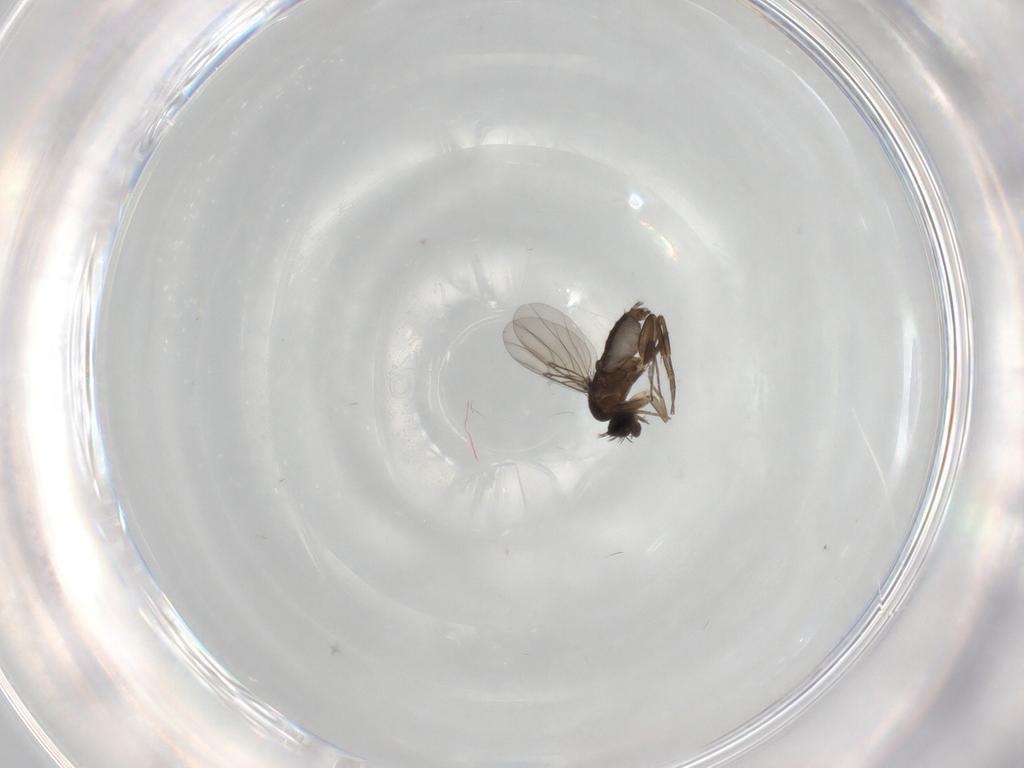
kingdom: Animalia
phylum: Arthropoda
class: Insecta
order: Diptera
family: Phoridae
